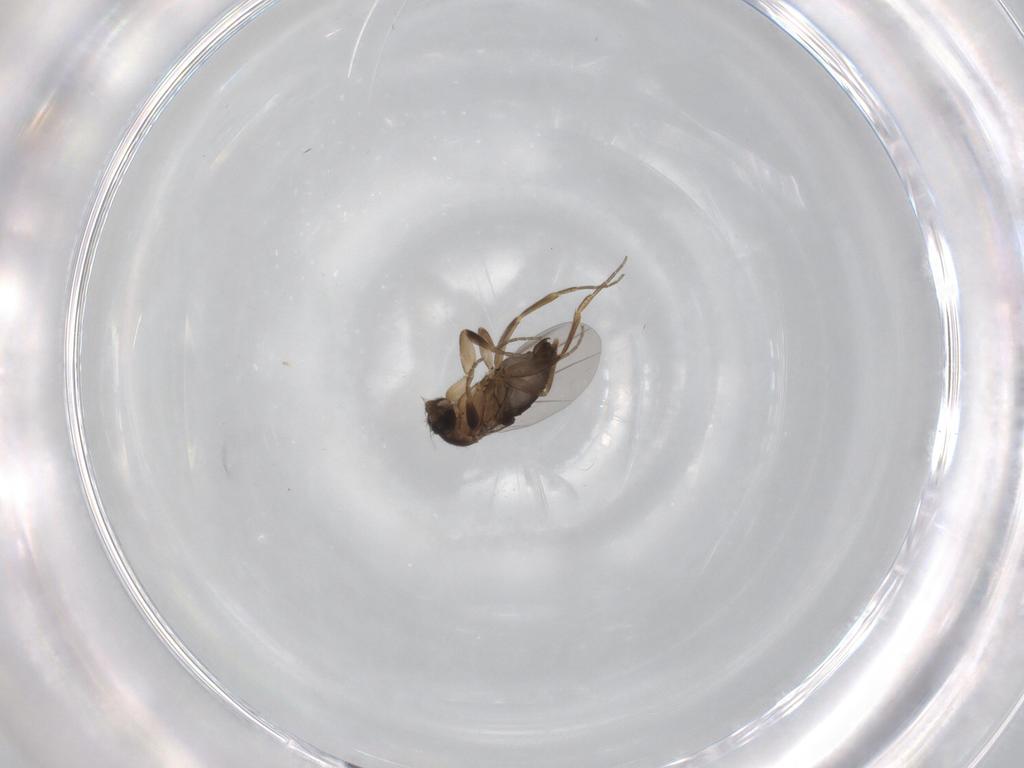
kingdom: Animalia
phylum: Arthropoda
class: Insecta
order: Diptera
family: Phoridae
